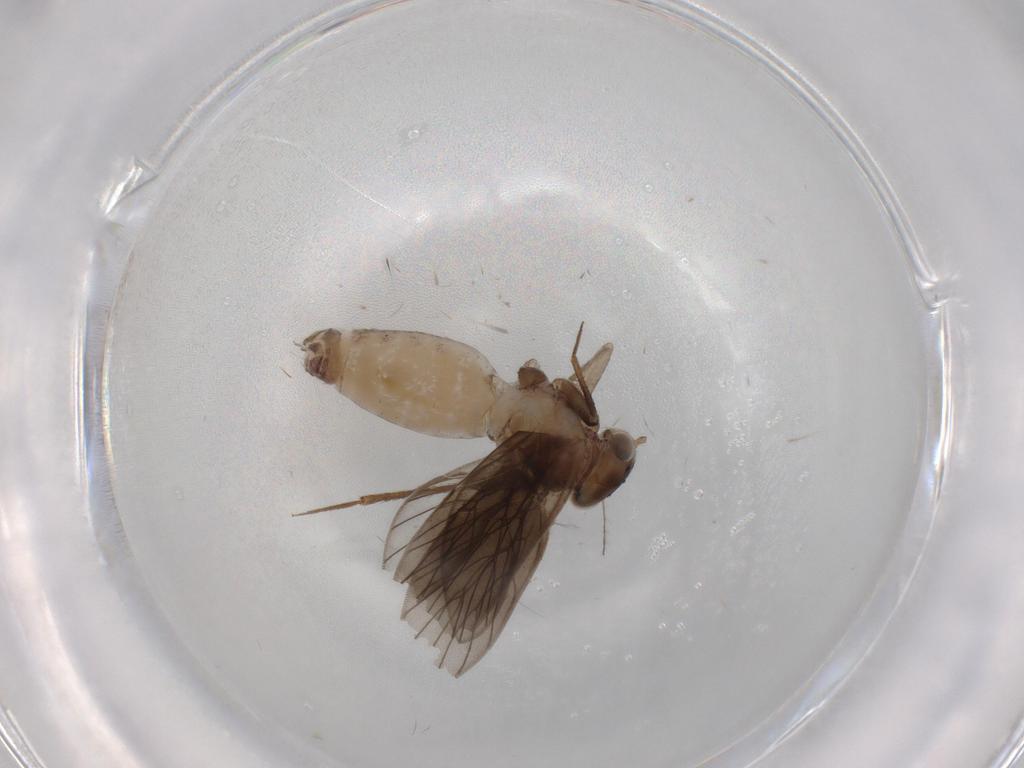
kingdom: Animalia
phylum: Arthropoda
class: Insecta
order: Psocodea
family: Lepidopsocidae
